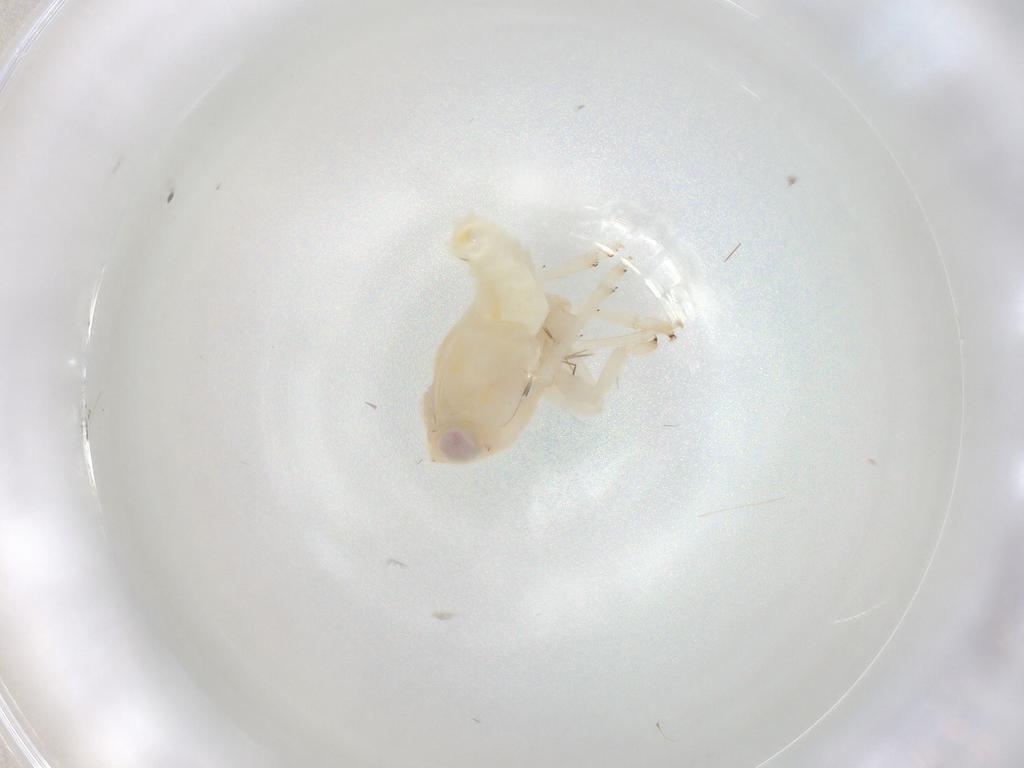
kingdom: Animalia
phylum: Arthropoda
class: Insecta
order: Hemiptera
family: Nogodinidae
